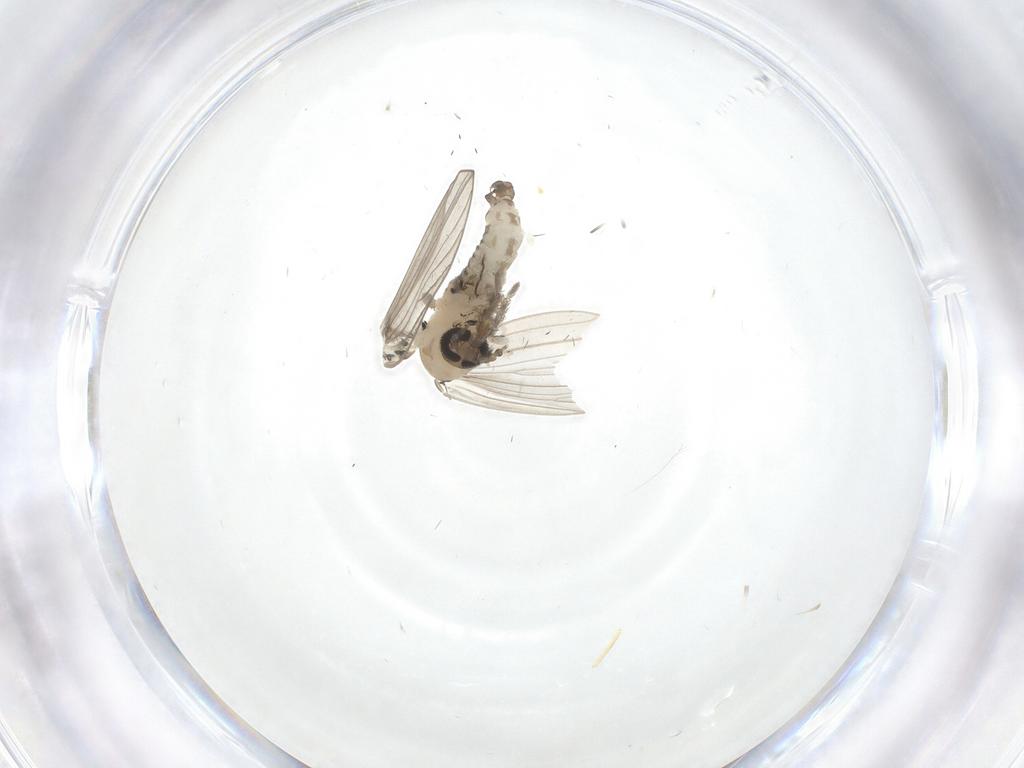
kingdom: Animalia
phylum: Arthropoda
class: Insecta
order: Diptera
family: Psychodidae
